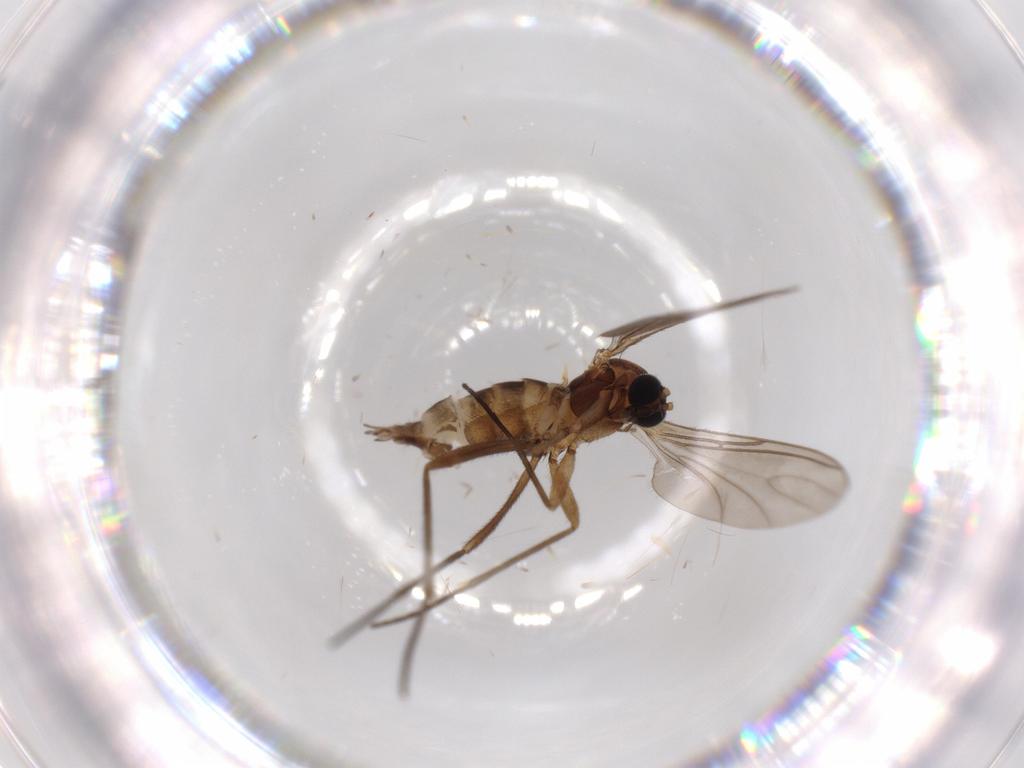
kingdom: Animalia
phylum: Arthropoda
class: Insecta
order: Diptera
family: Sciaridae
